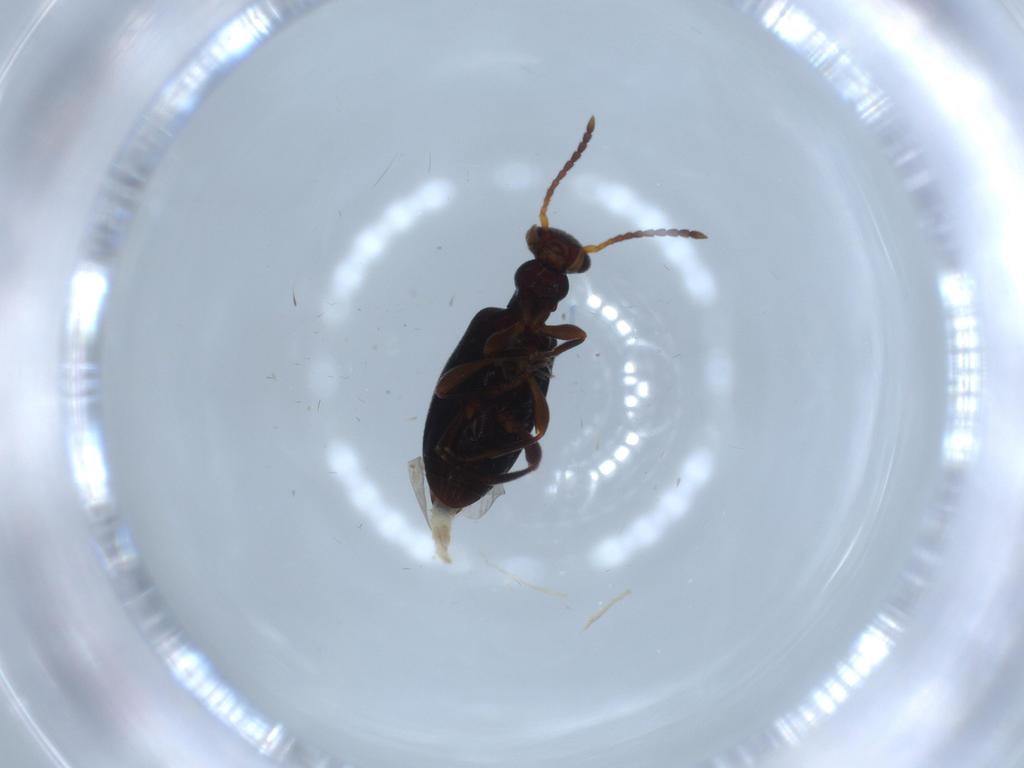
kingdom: Animalia
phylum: Arthropoda
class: Insecta
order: Coleoptera
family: Anthicidae
